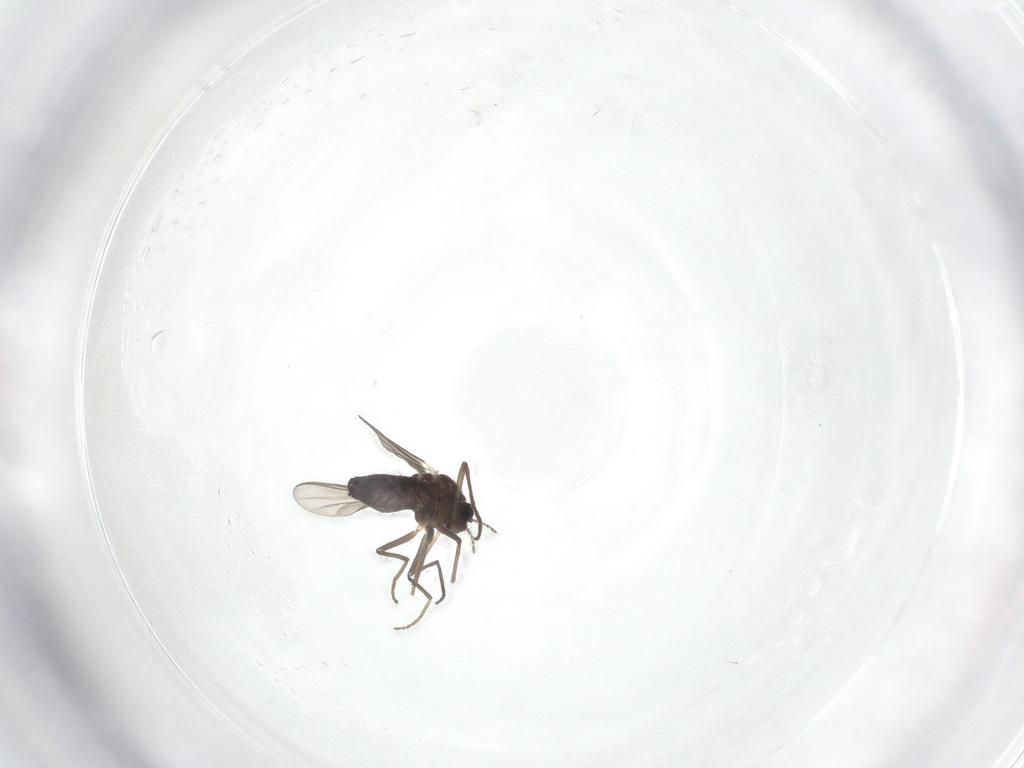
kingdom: Animalia
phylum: Arthropoda
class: Insecta
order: Diptera
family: Chironomidae
